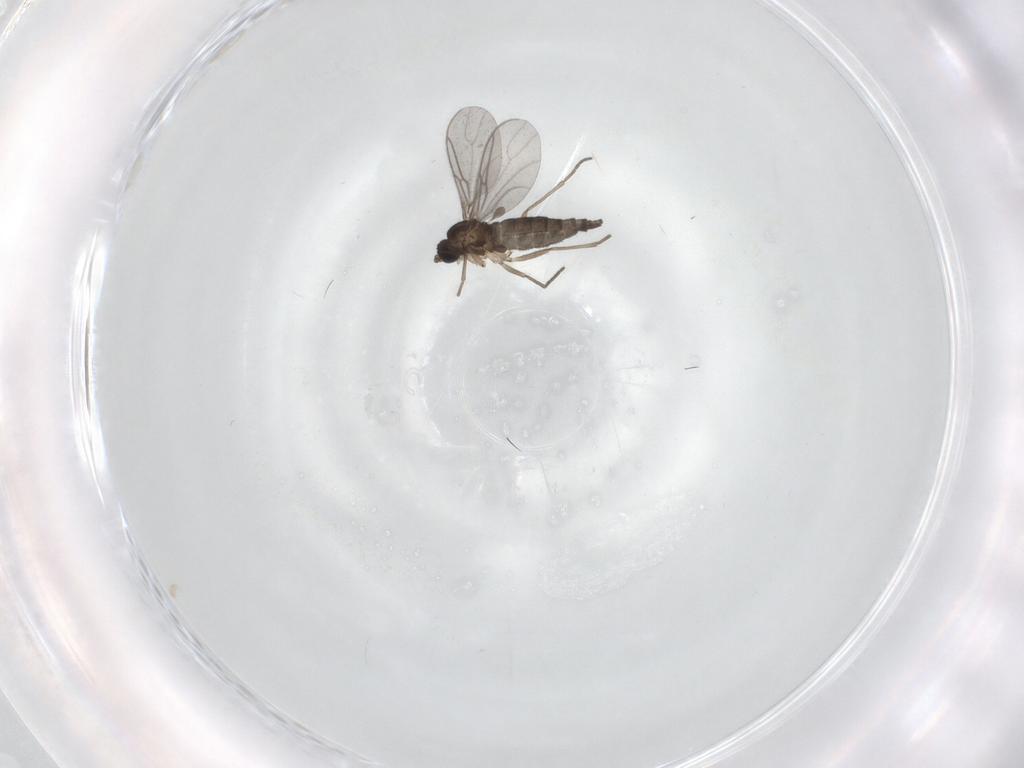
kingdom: Animalia
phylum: Arthropoda
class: Insecta
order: Diptera
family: Sciaridae
